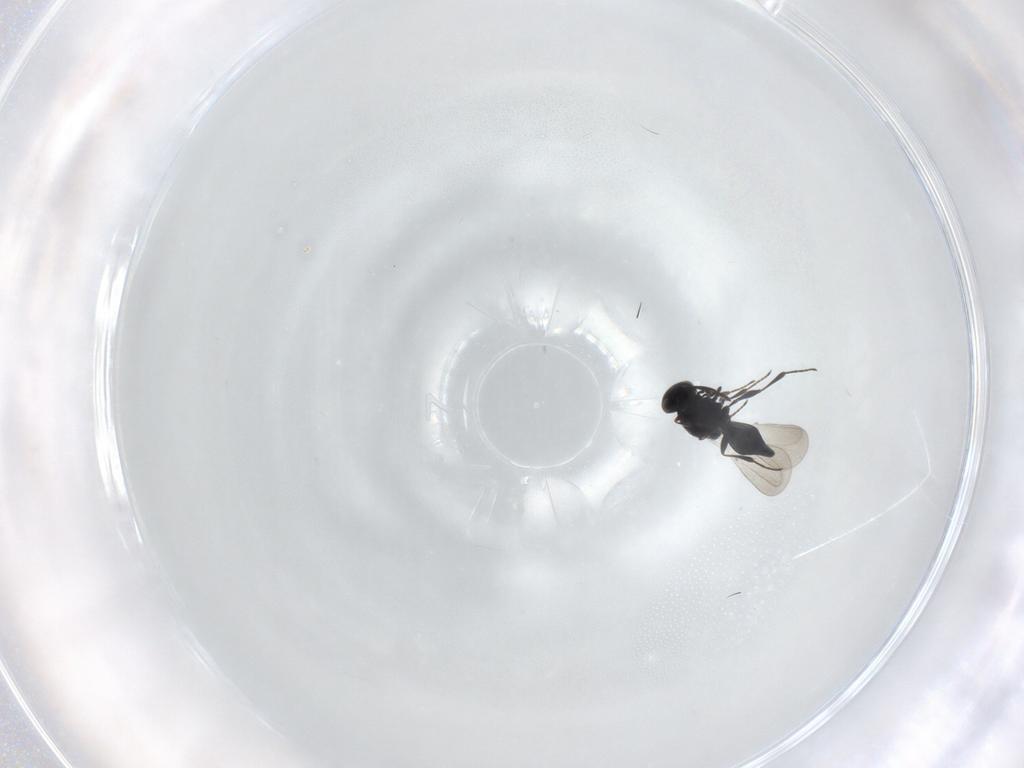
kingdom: Animalia
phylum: Arthropoda
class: Insecta
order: Hymenoptera
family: Platygastridae
